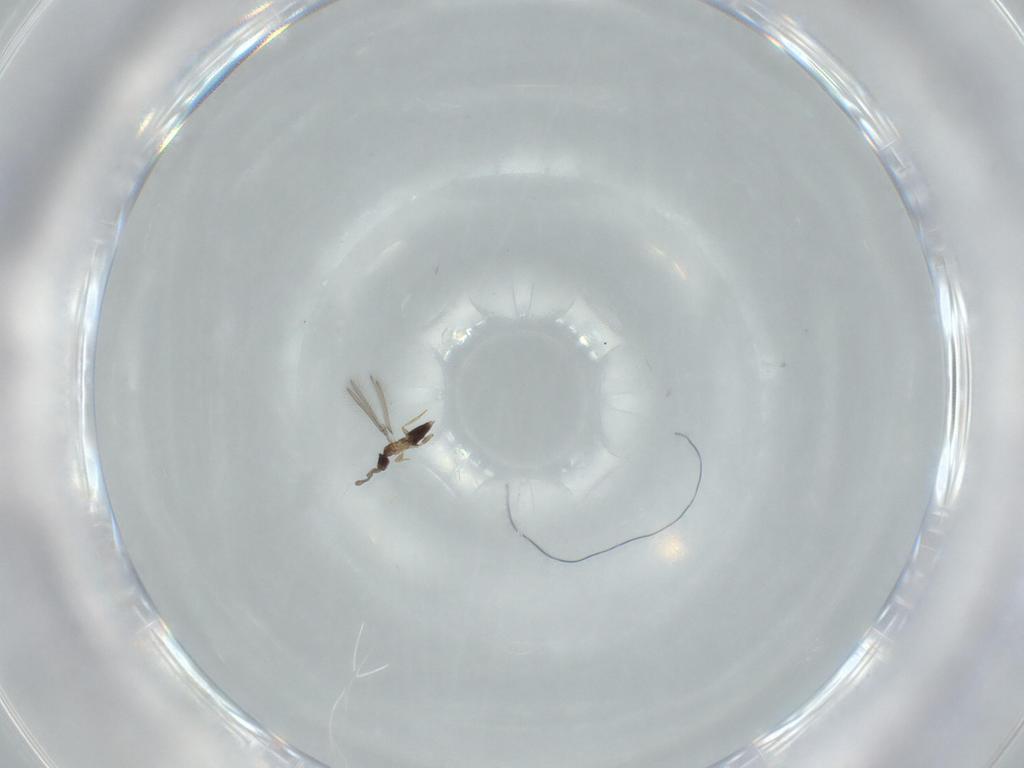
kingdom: Animalia
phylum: Arthropoda
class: Insecta
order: Hymenoptera
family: Mymaridae
